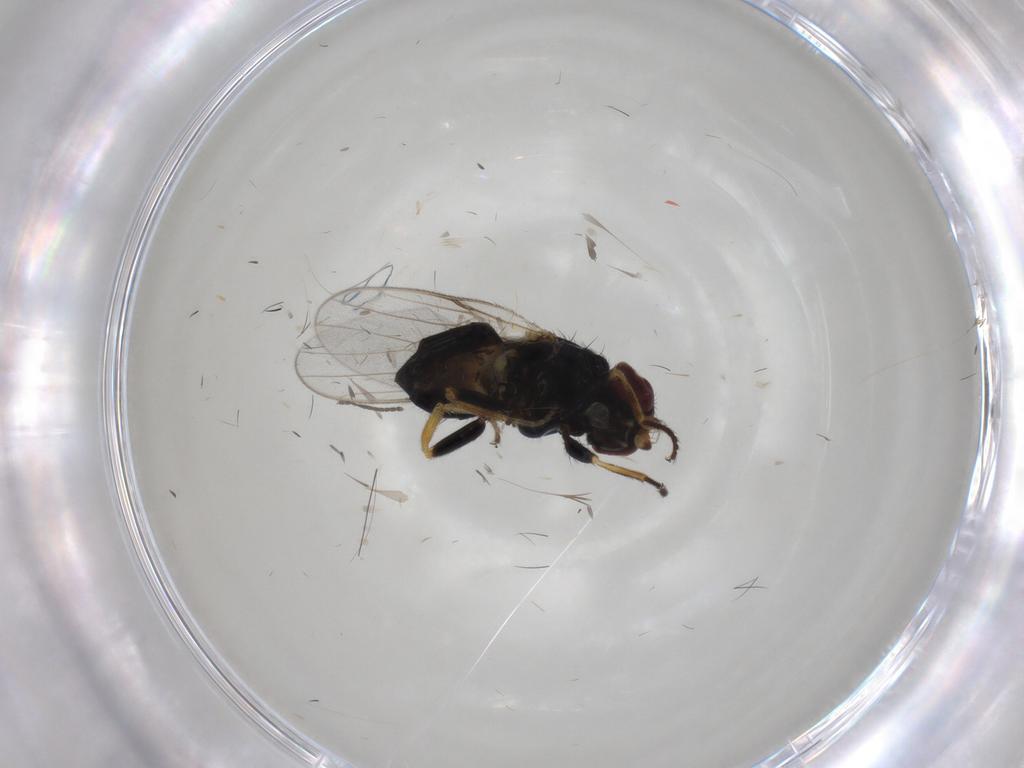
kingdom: Animalia
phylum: Arthropoda
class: Insecta
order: Diptera
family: Chloropidae
